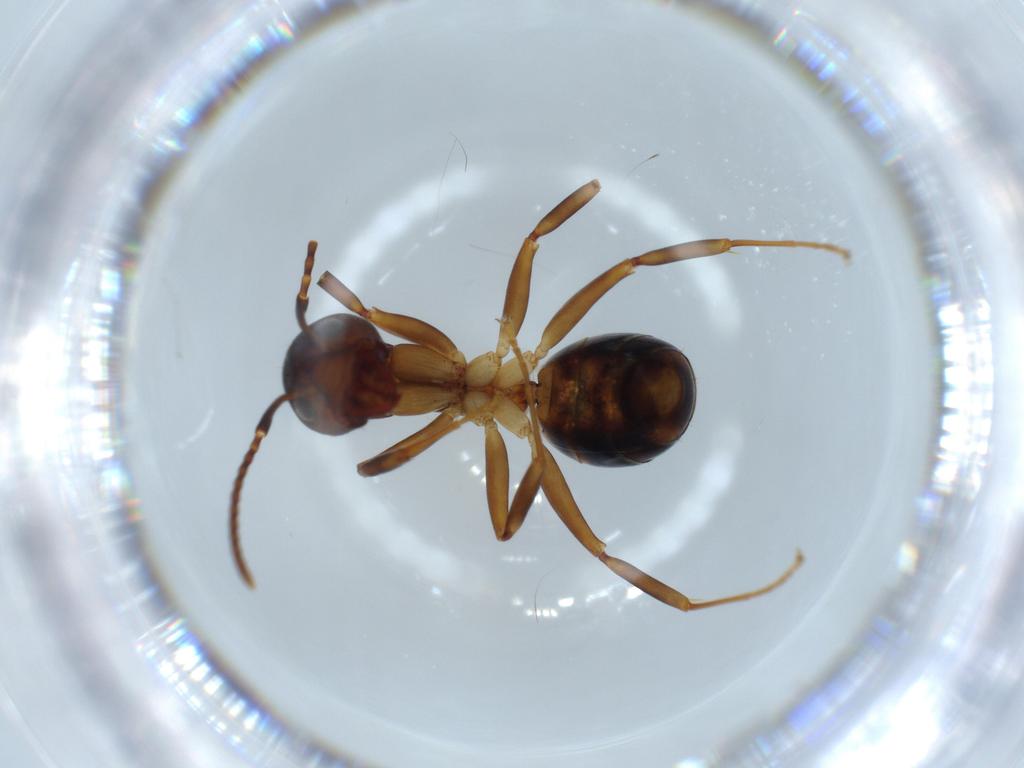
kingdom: Animalia
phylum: Arthropoda
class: Insecta
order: Hymenoptera
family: Formicidae
